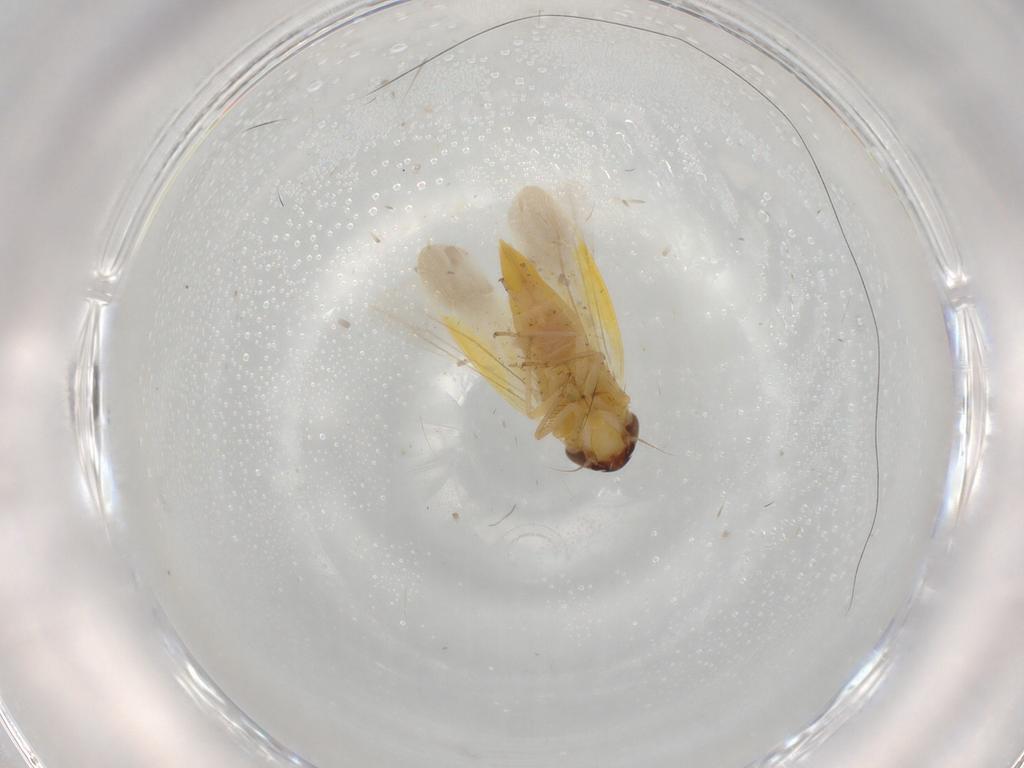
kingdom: Animalia
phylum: Arthropoda
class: Insecta
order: Hemiptera
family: Cicadellidae
